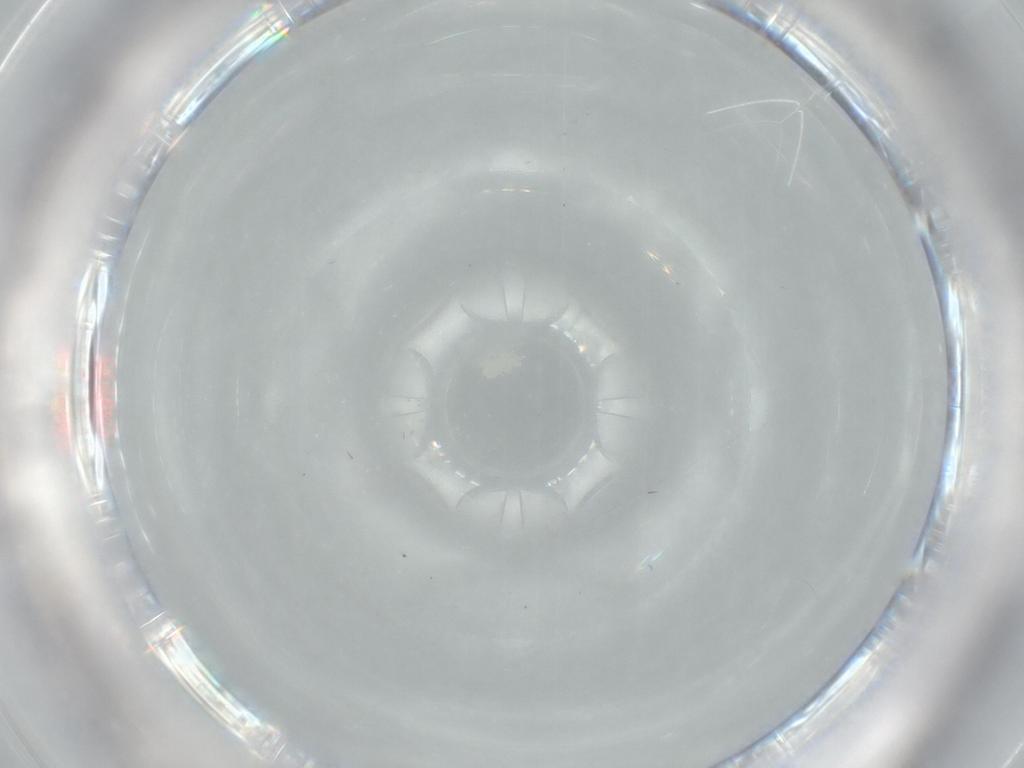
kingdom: Animalia
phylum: Arthropoda
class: Arachnida
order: Trombidiformes
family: Eupodidae
